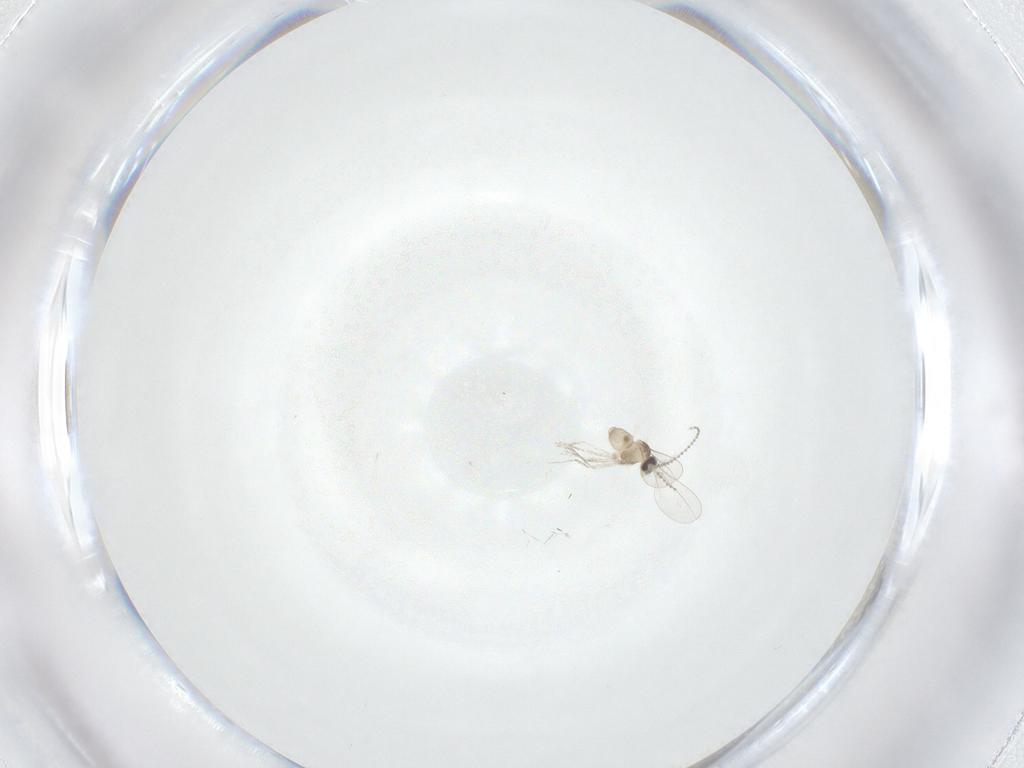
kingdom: Animalia
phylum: Arthropoda
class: Insecta
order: Diptera
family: Cecidomyiidae
